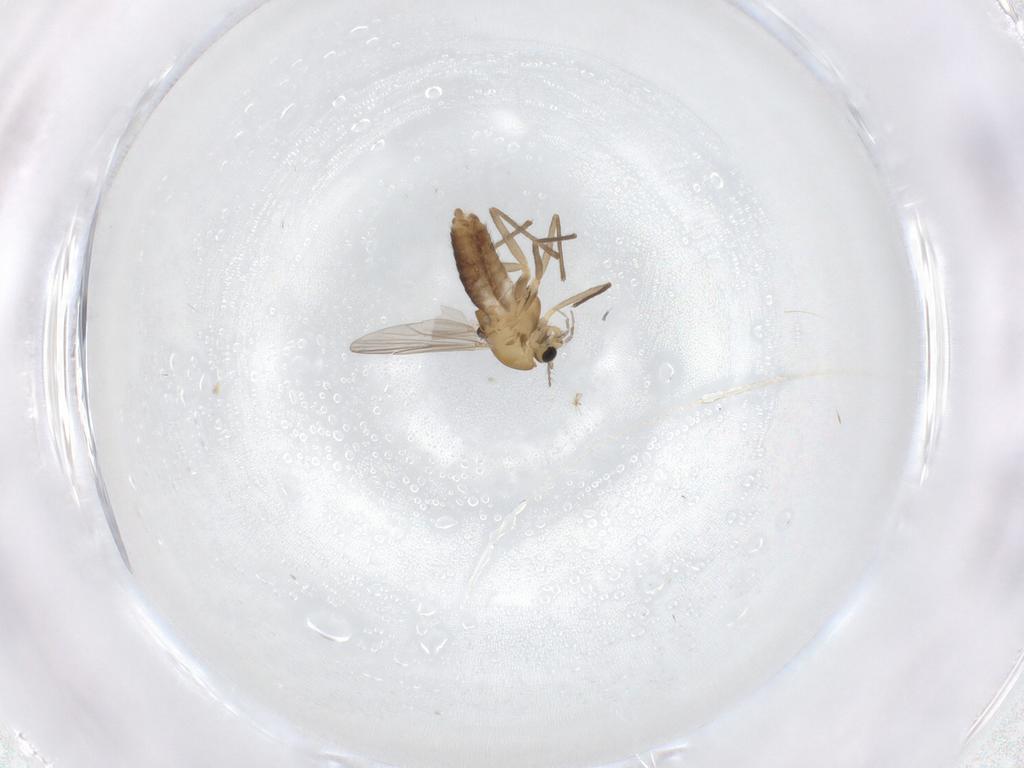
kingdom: Animalia
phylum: Arthropoda
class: Insecta
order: Diptera
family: Chironomidae
